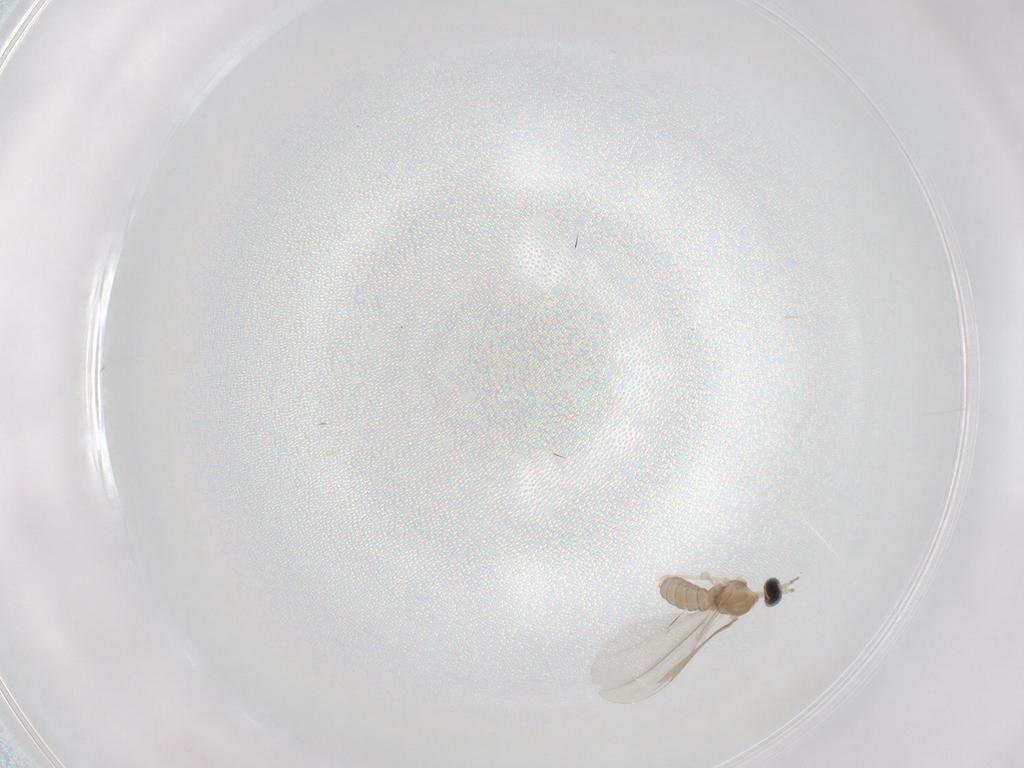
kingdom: Animalia
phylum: Arthropoda
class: Insecta
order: Diptera
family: Cecidomyiidae
